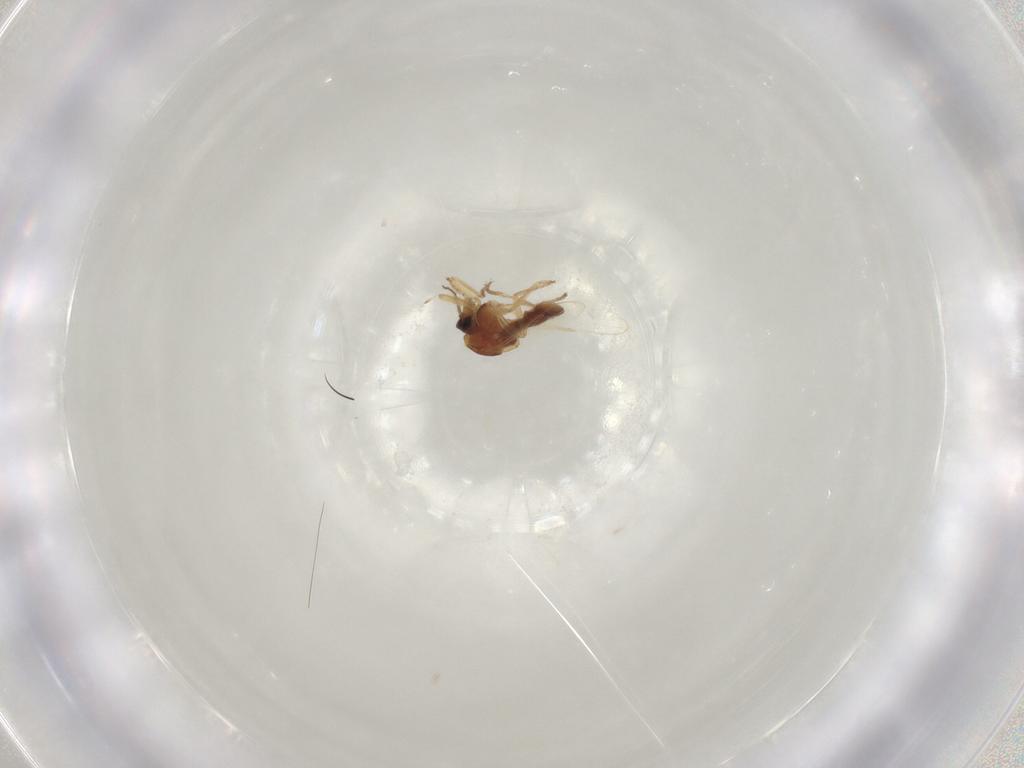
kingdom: Animalia
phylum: Arthropoda
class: Insecta
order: Diptera
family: Ceratopogonidae
